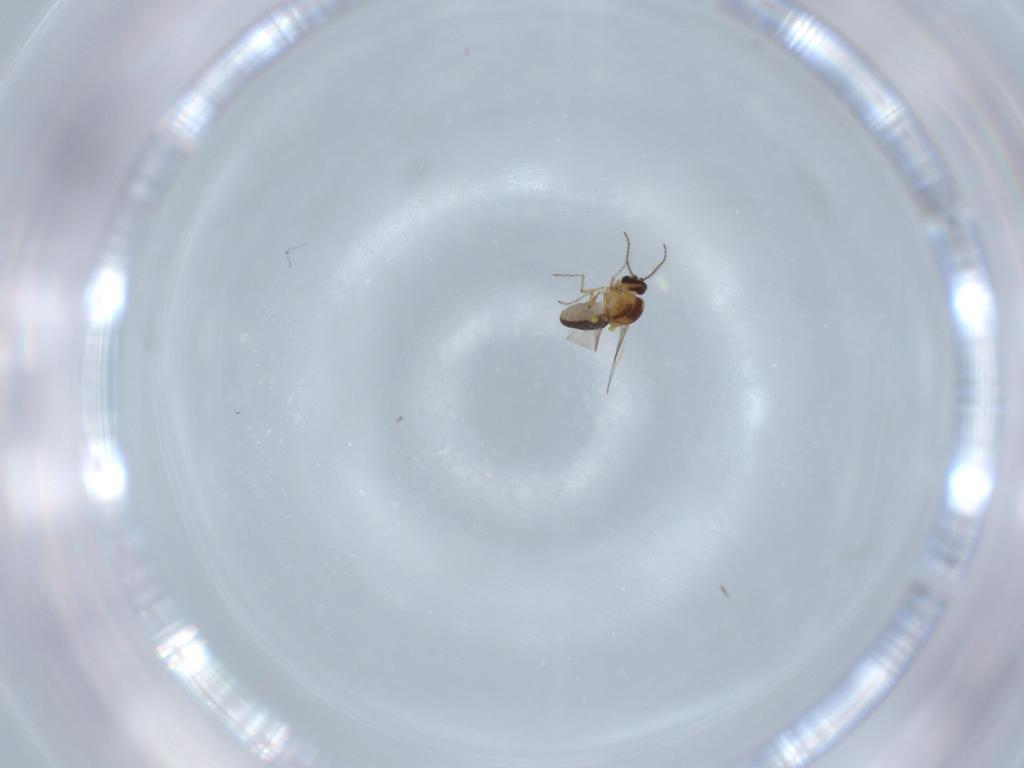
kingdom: Animalia
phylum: Arthropoda
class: Insecta
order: Diptera
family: Ceratopogonidae
